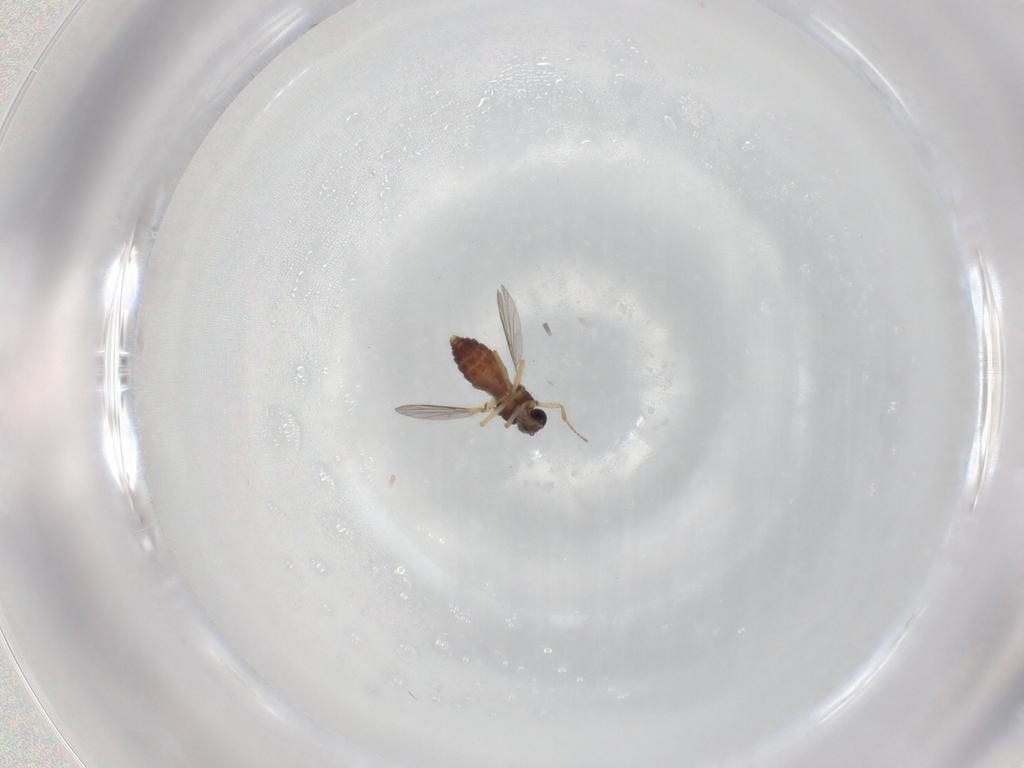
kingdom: Animalia
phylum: Arthropoda
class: Insecta
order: Diptera
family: Ceratopogonidae
